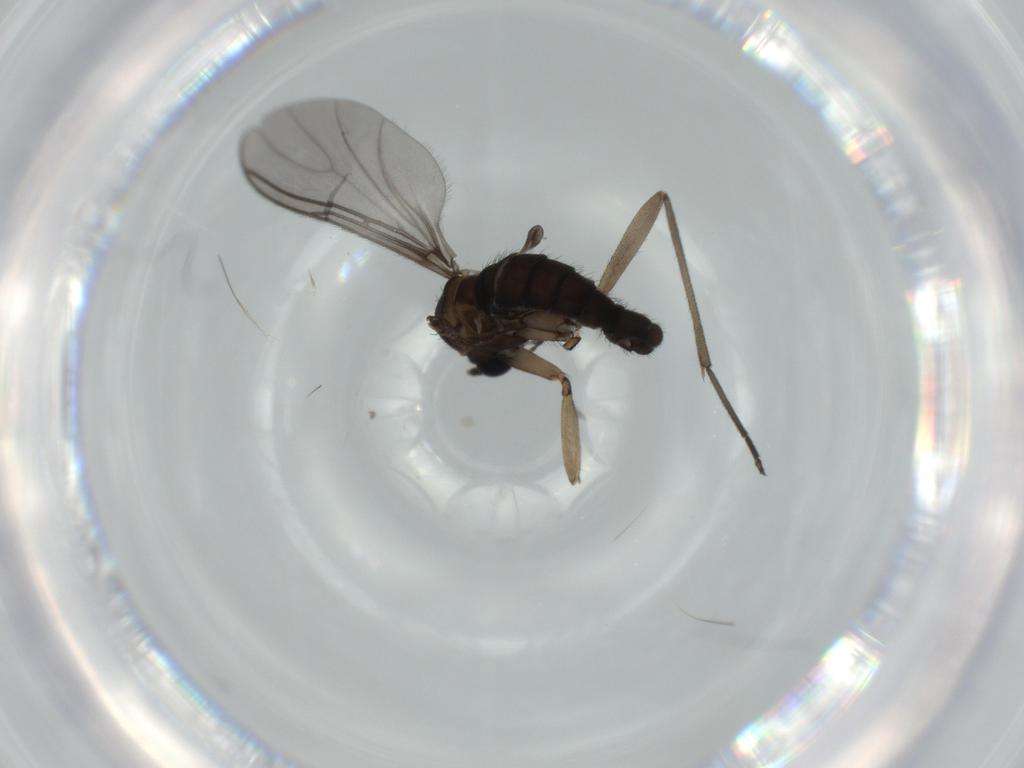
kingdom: Animalia
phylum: Arthropoda
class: Insecta
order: Diptera
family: Sciaridae
